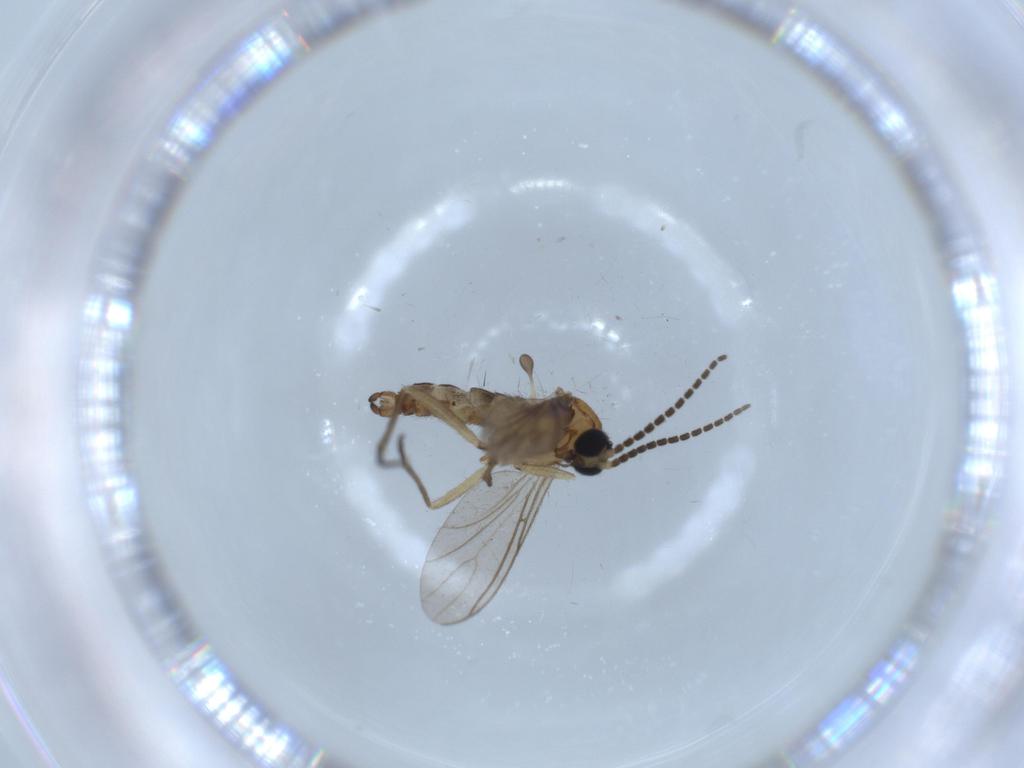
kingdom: Animalia
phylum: Arthropoda
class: Insecta
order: Diptera
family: Sciaridae
